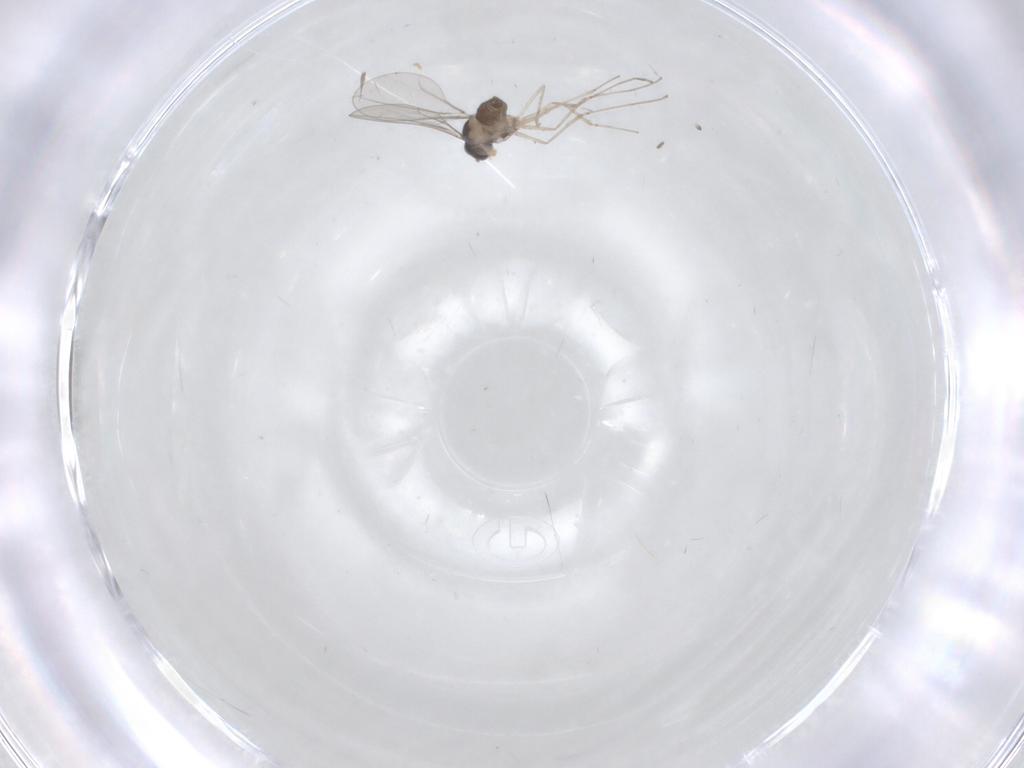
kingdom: Animalia
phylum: Arthropoda
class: Insecta
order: Diptera
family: Cecidomyiidae
